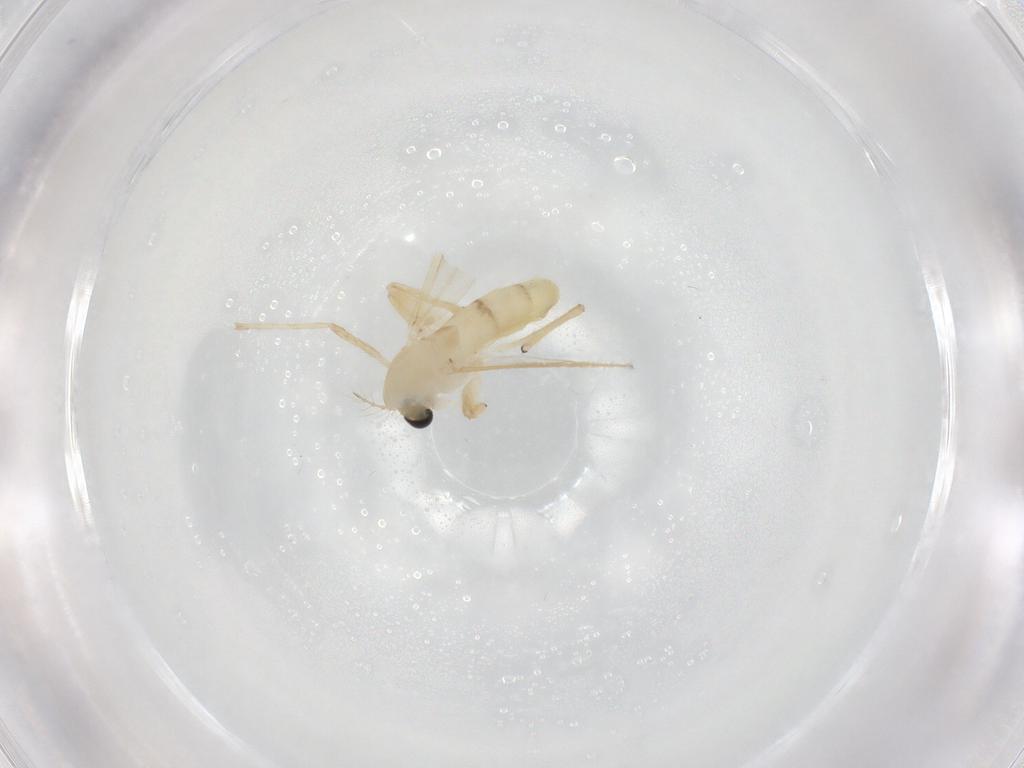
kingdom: Animalia
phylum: Arthropoda
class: Insecta
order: Diptera
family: Chironomidae
